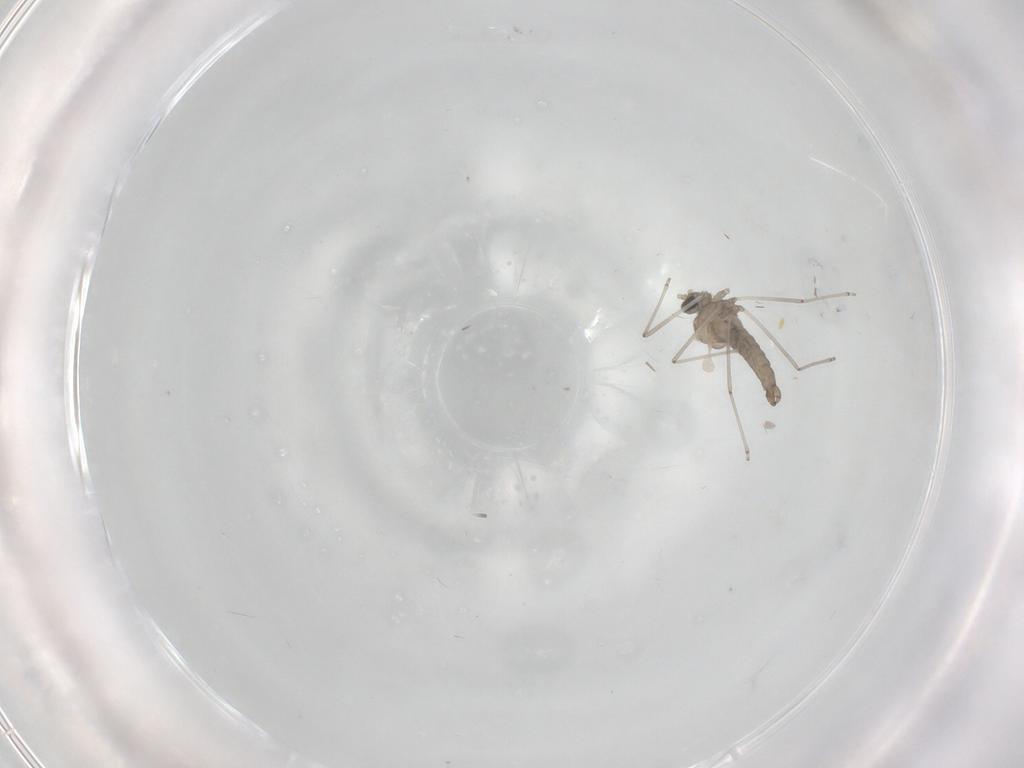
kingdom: Animalia
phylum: Arthropoda
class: Insecta
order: Diptera
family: Cecidomyiidae
